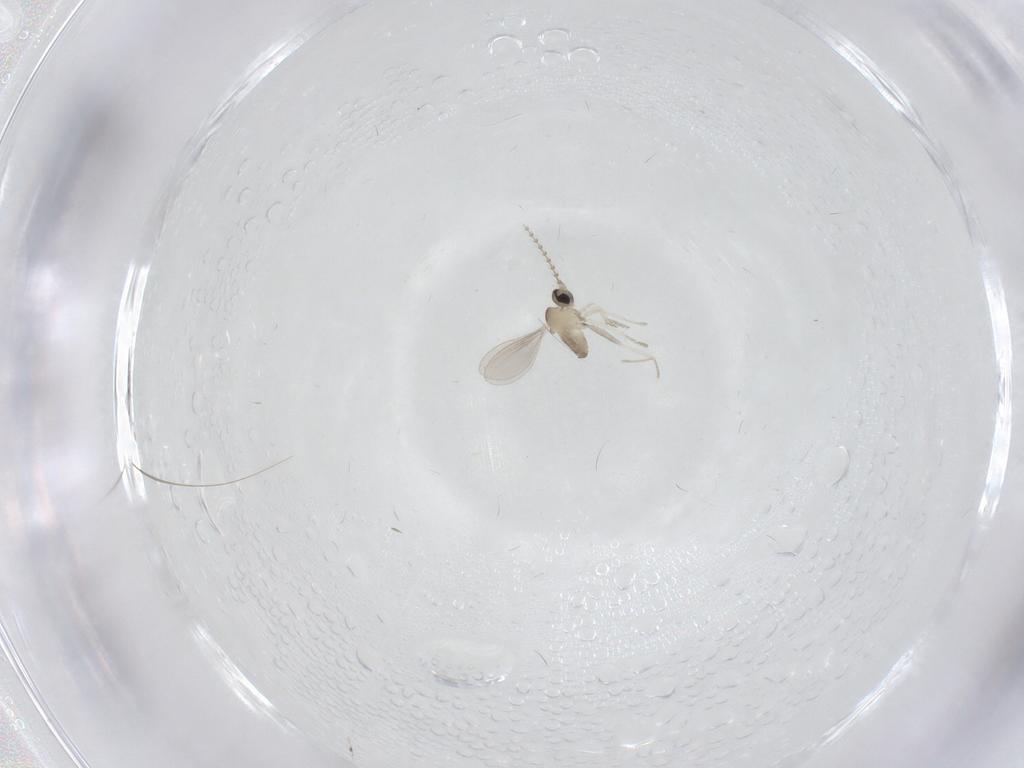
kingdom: Animalia
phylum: Arthropoda
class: Insecta
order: Diptera
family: Cecidomyiidae
